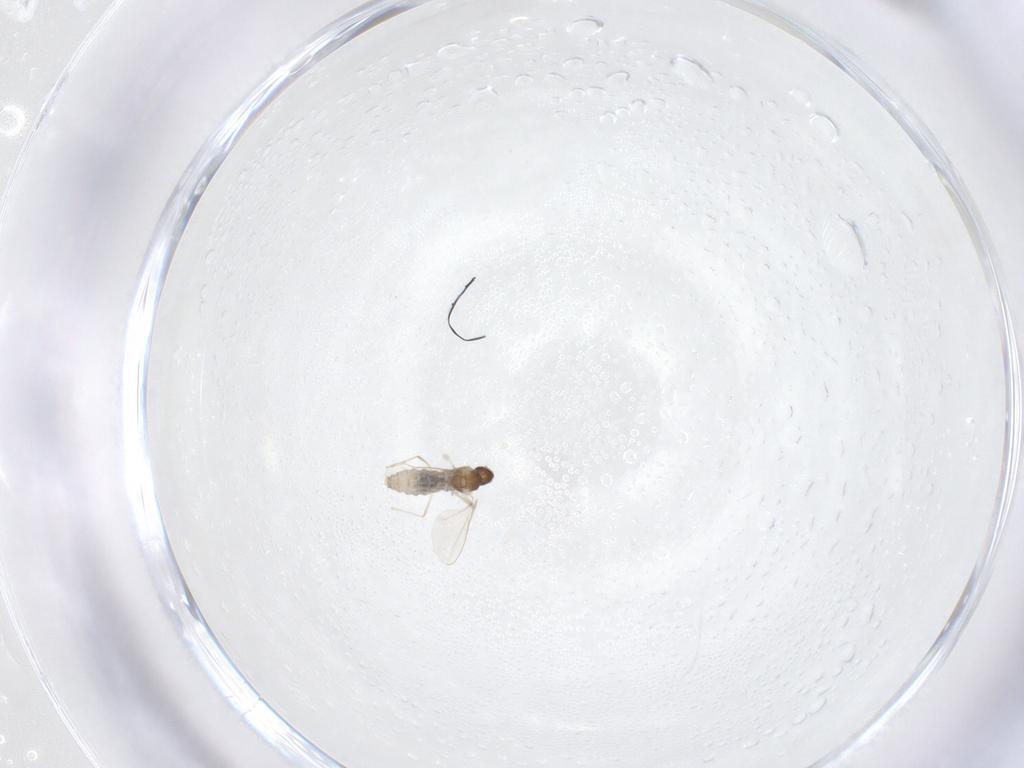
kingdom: Animalia
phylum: Arthropoda
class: Insecta
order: Diptera
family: Cecidomyiidae
